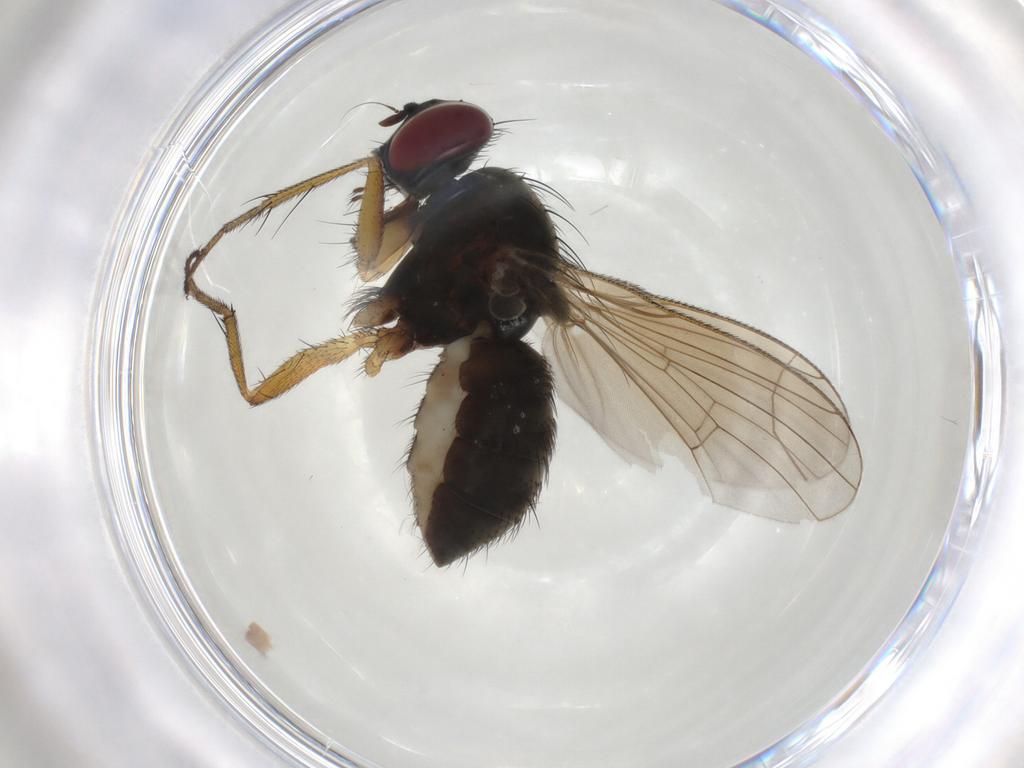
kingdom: Animalia
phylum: Arthropoda
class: Insecta
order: Diptera
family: Muscidae
